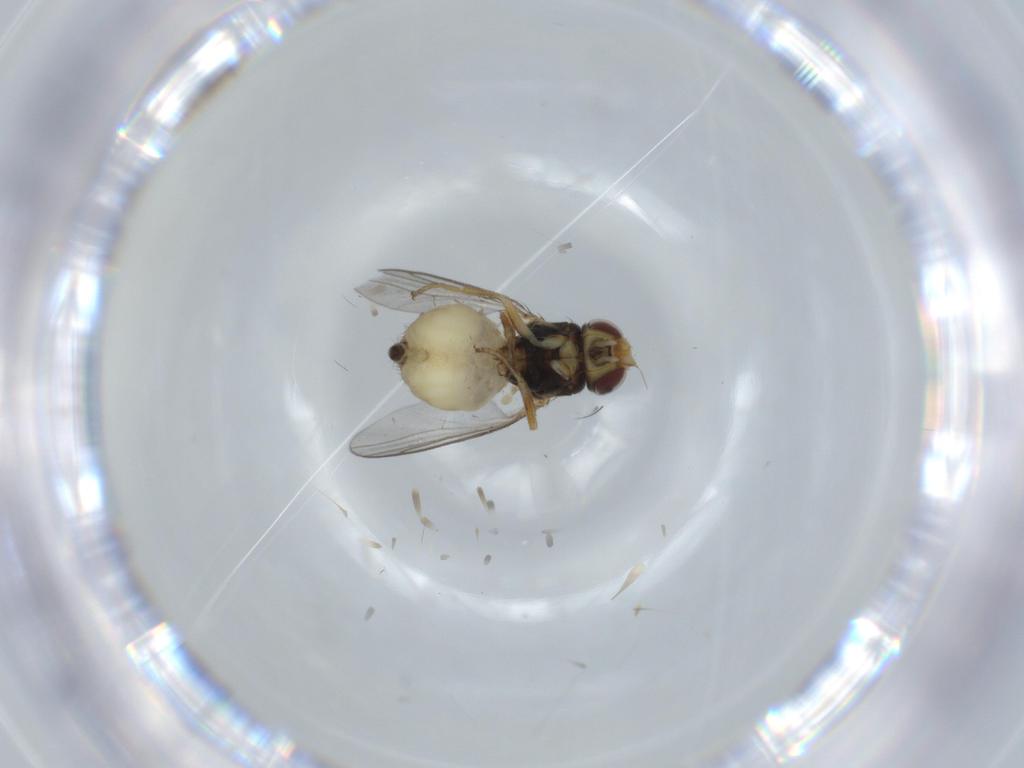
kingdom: Animalia
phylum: Arthropoda
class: Insecta
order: Diptera
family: Chloropidae
